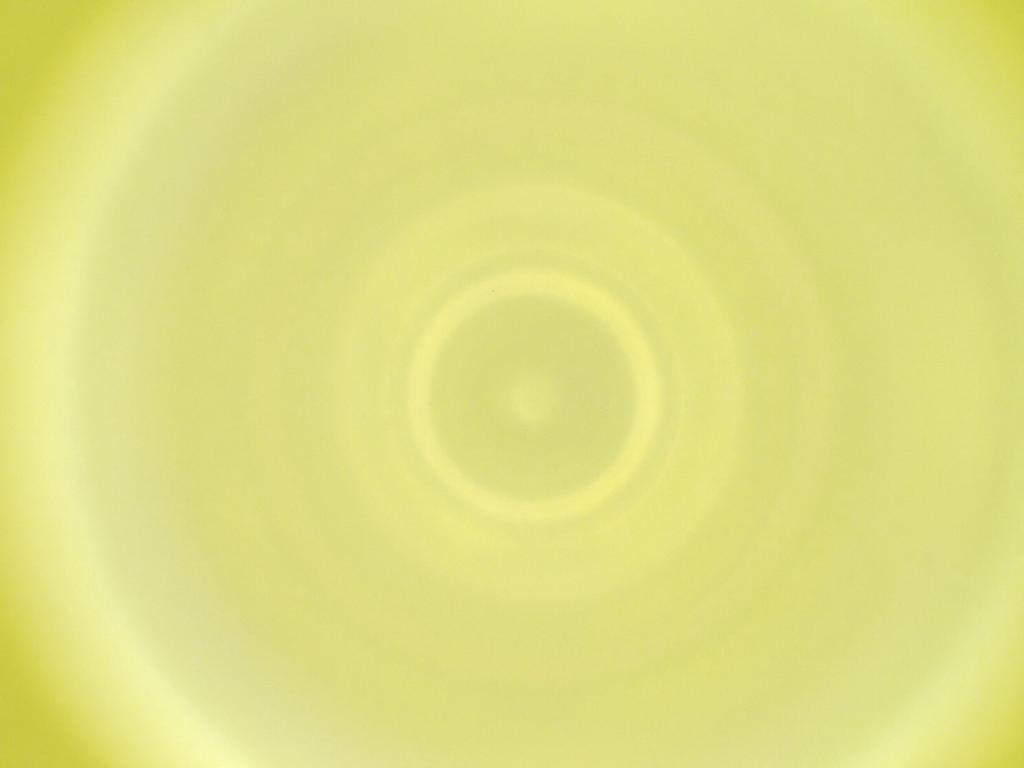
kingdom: Animalia
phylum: Arthropoda
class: Insecta
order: Diptera
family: Cecidomyiidae
